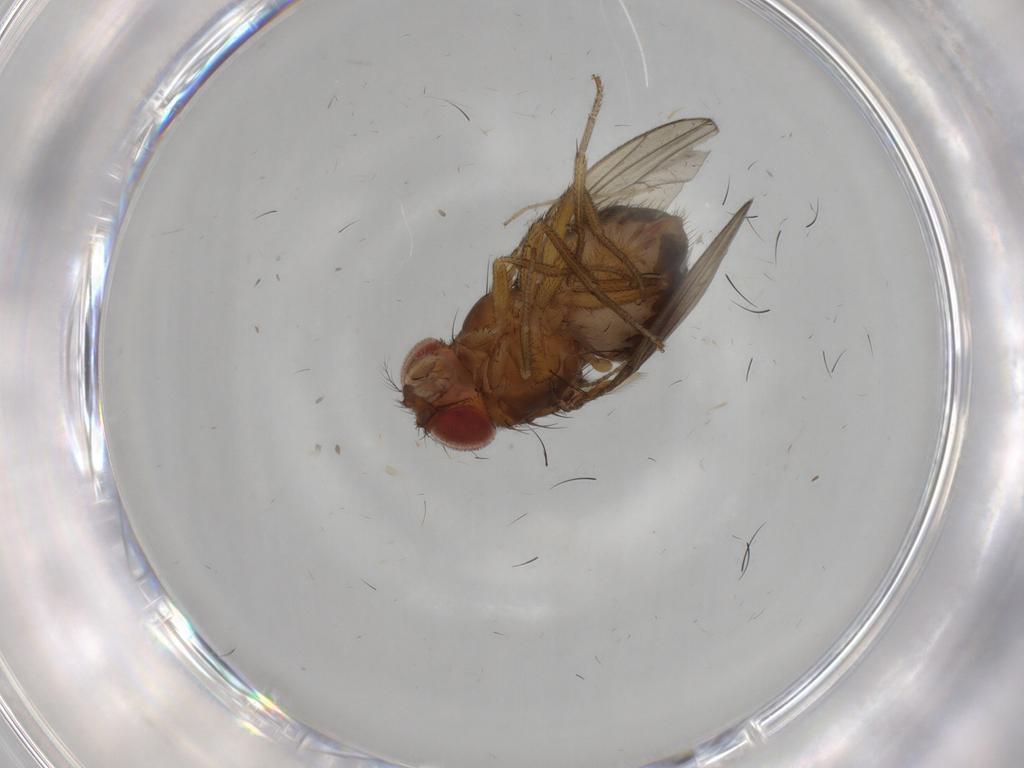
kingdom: Animalia
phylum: Arthropoda
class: Insecta
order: Diptera
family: Drosophilidae
